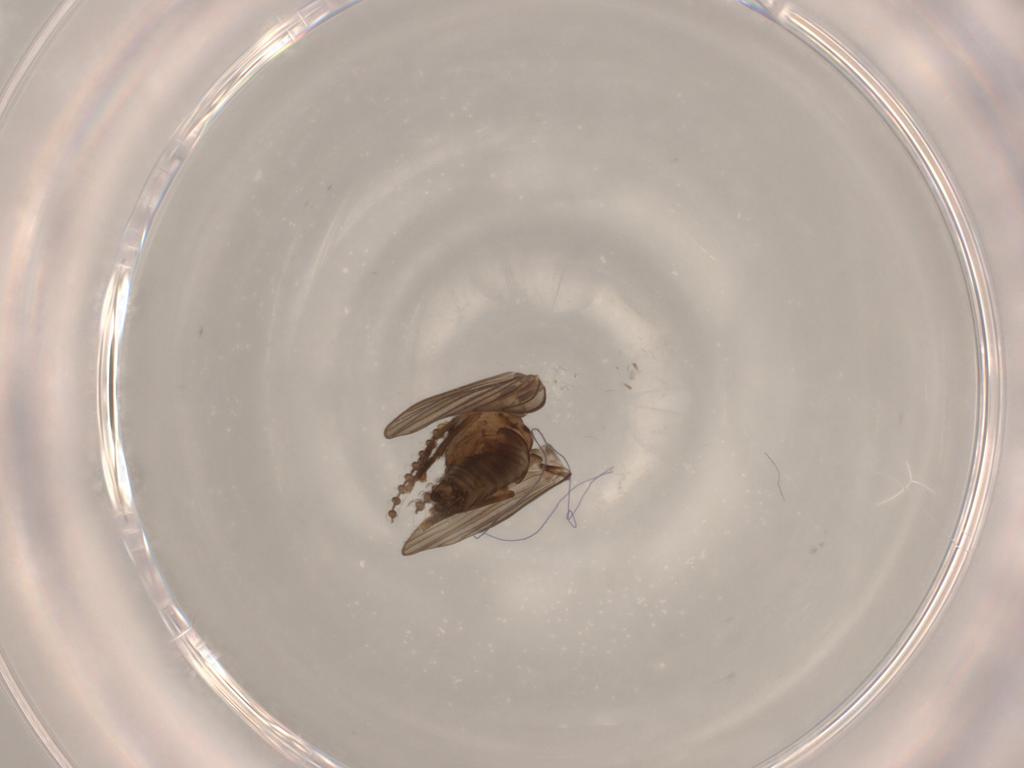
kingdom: Animalia
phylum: Arthropoda
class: Insecta
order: Diptera
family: Psychodidae
